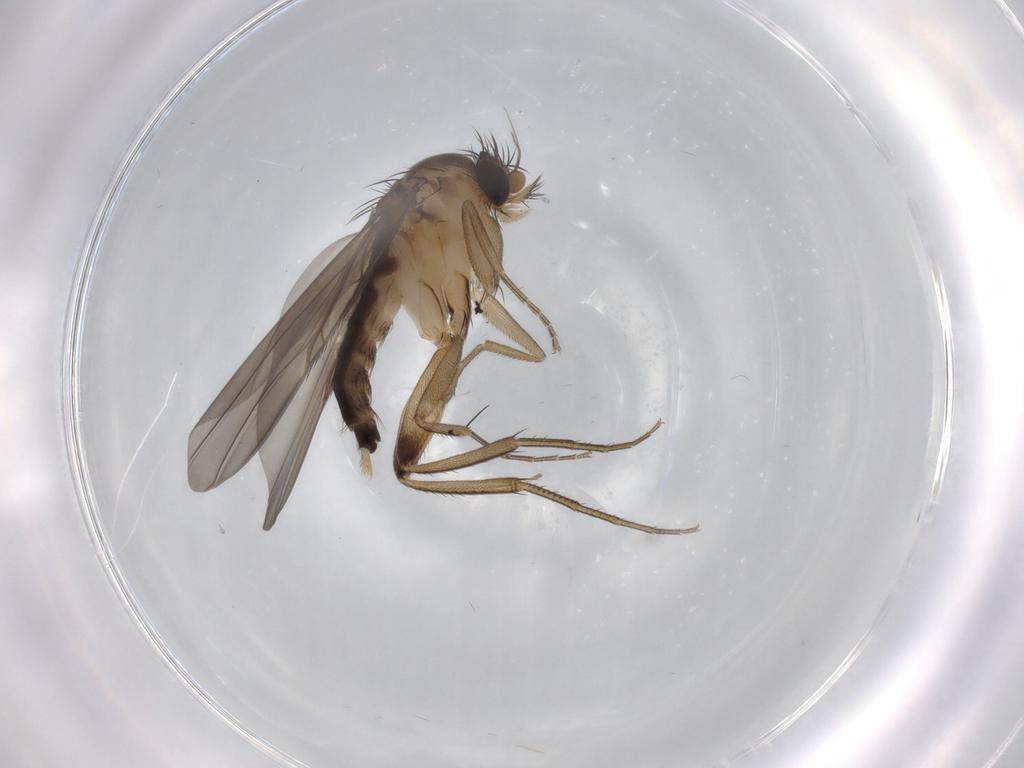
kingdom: Animalia
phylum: Arthropoda
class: Insecta
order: Diptera
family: Phoridae
